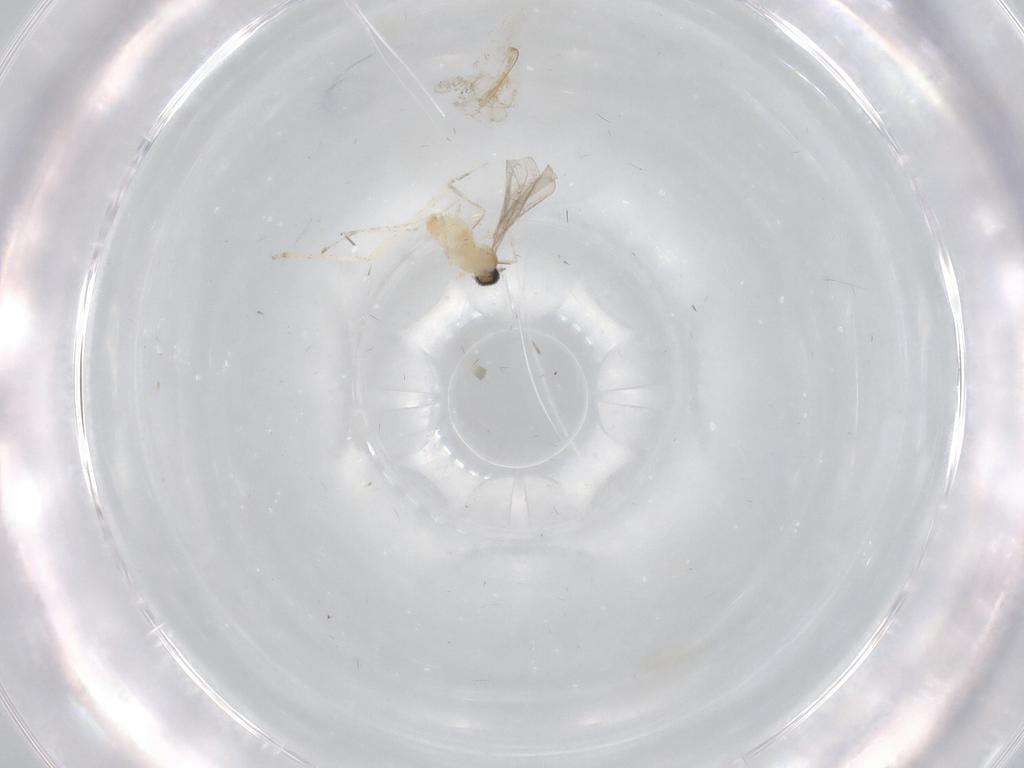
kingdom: Animalia
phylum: Arthropoda
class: Insecta
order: Diptera
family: Cecidomyiidae
